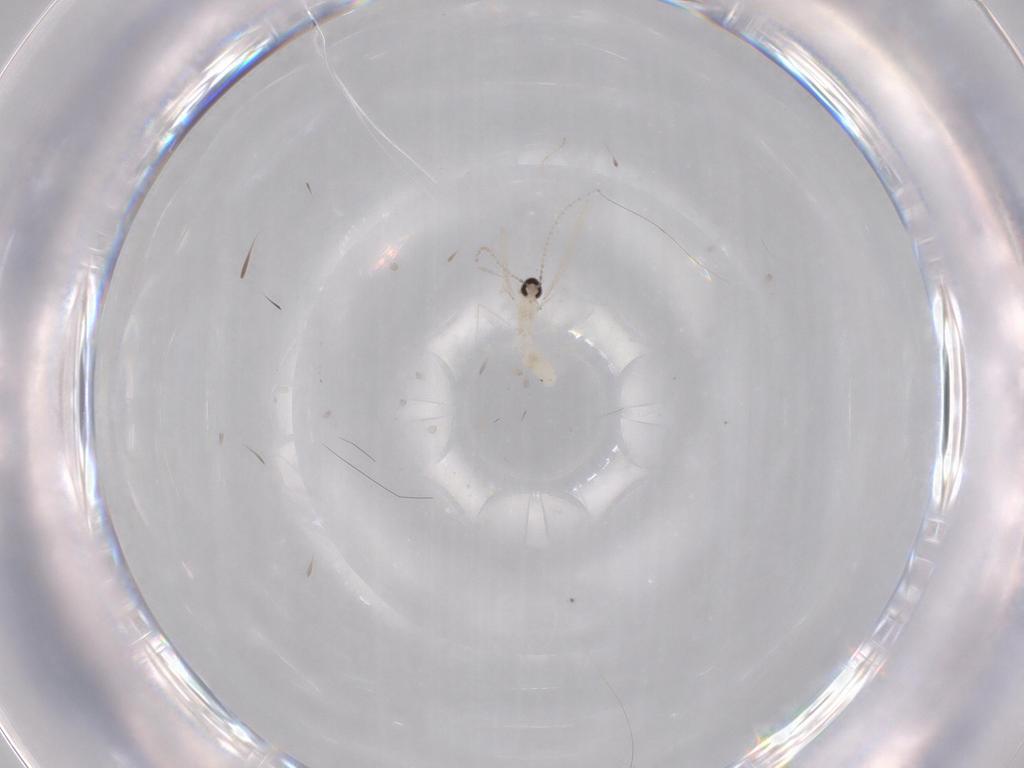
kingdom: Animalia
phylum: Arthropoda
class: Insecta
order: Diptera
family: Cecidomyiidae
